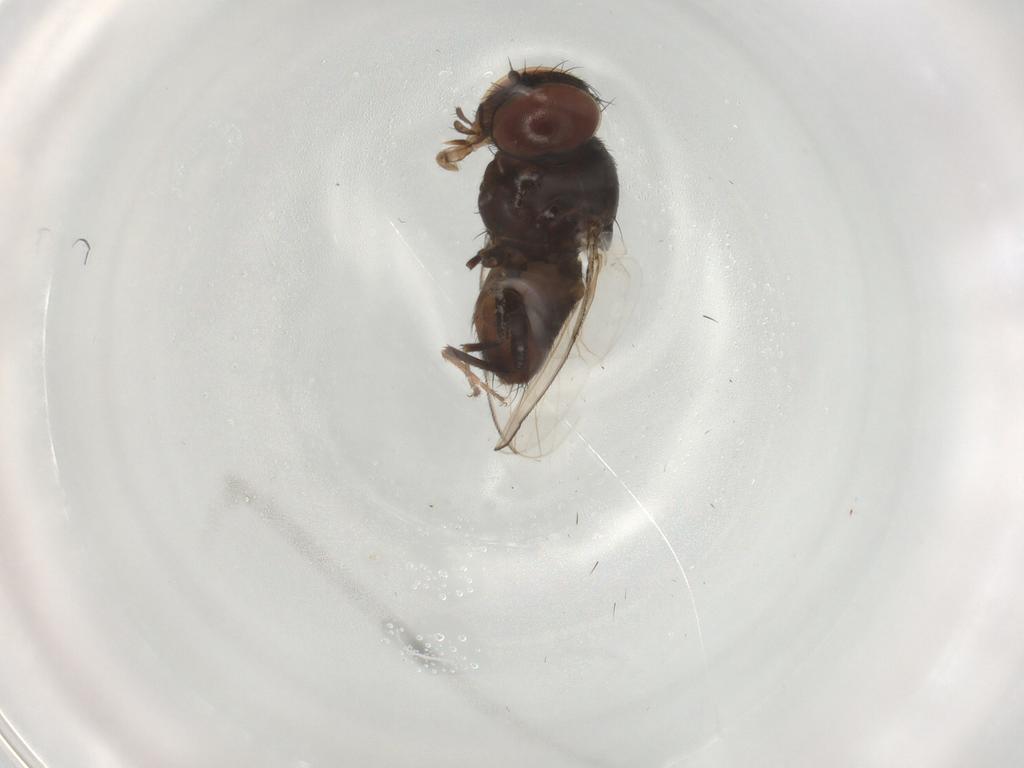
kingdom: Animalia
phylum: Arthropoda
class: Insecta
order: Diptera
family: Milichiidae
